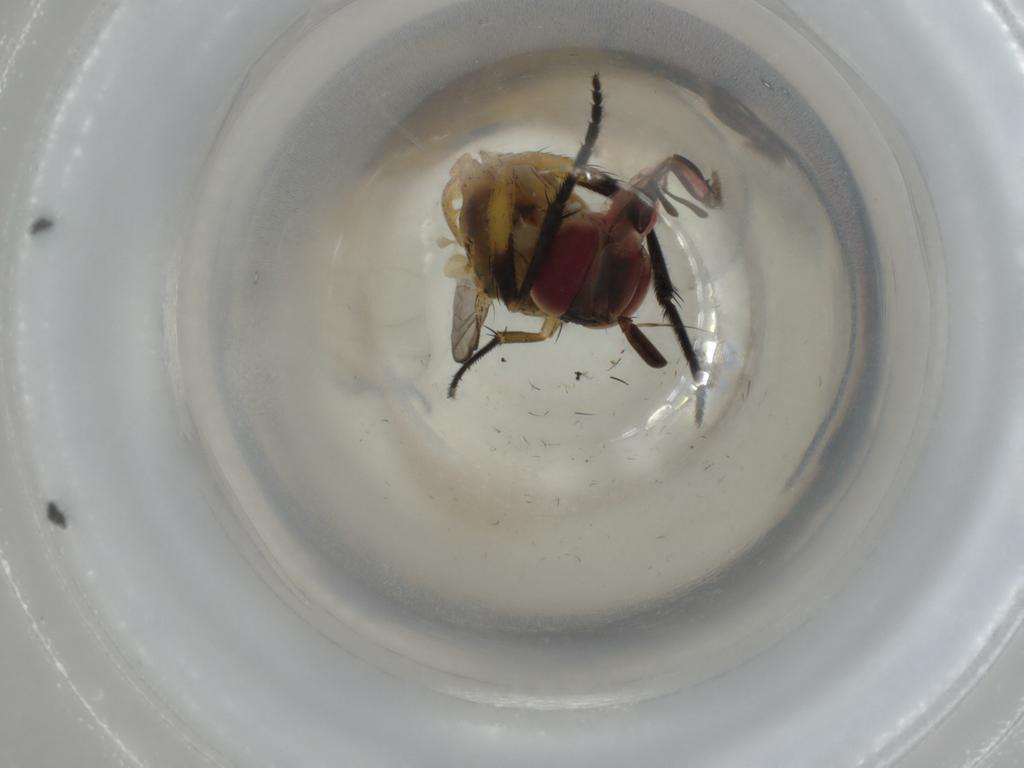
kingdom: Animalia
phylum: Arthropoda
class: Insecta
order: Diptera
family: Muscidae
